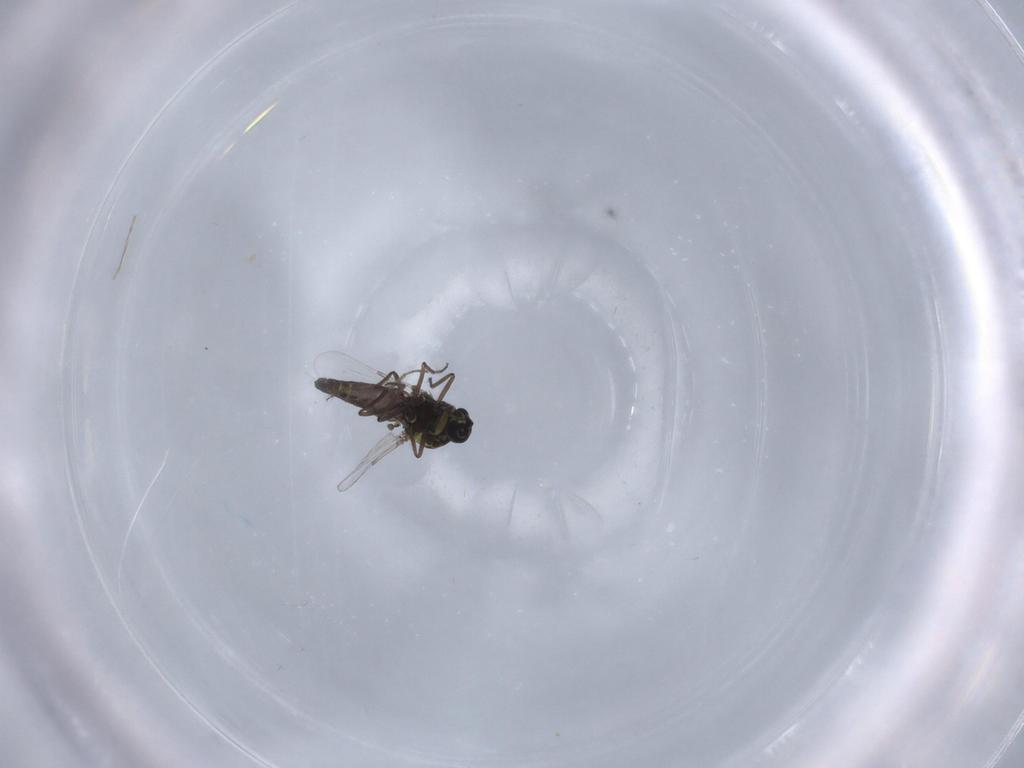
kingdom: Animalia
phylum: Arthropoda
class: Insecta
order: Diptera
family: Ceratopogonidae
